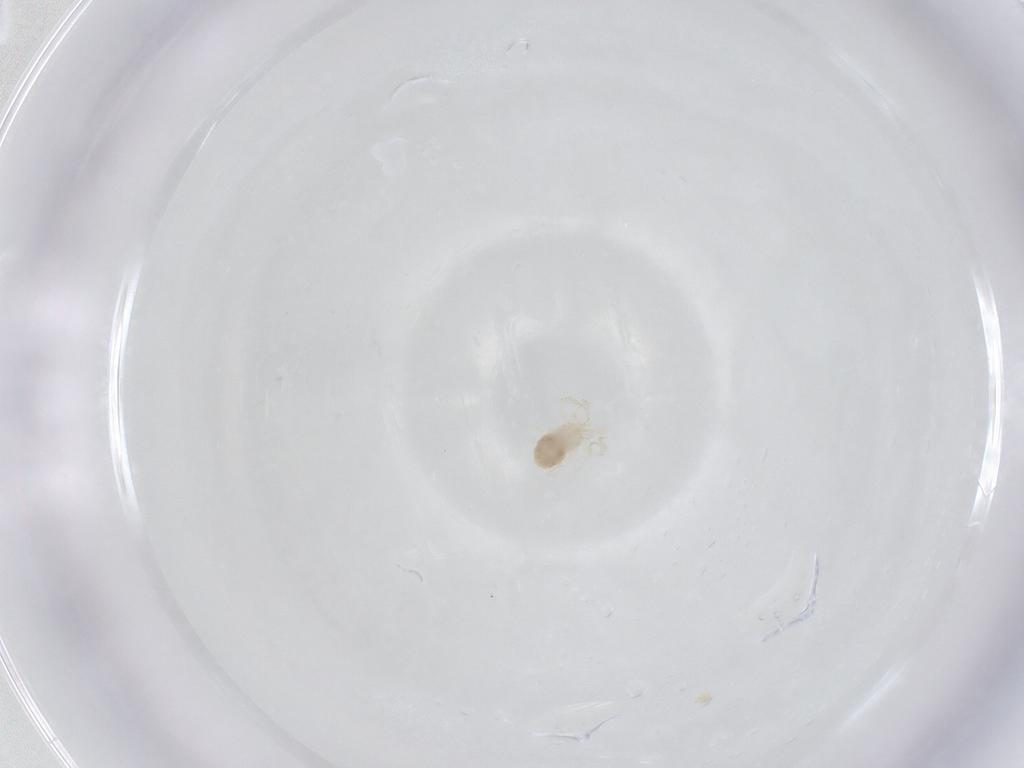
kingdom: Animalia
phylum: Arthropoda
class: Arachnida
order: Trombidiformes
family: Anystidae
